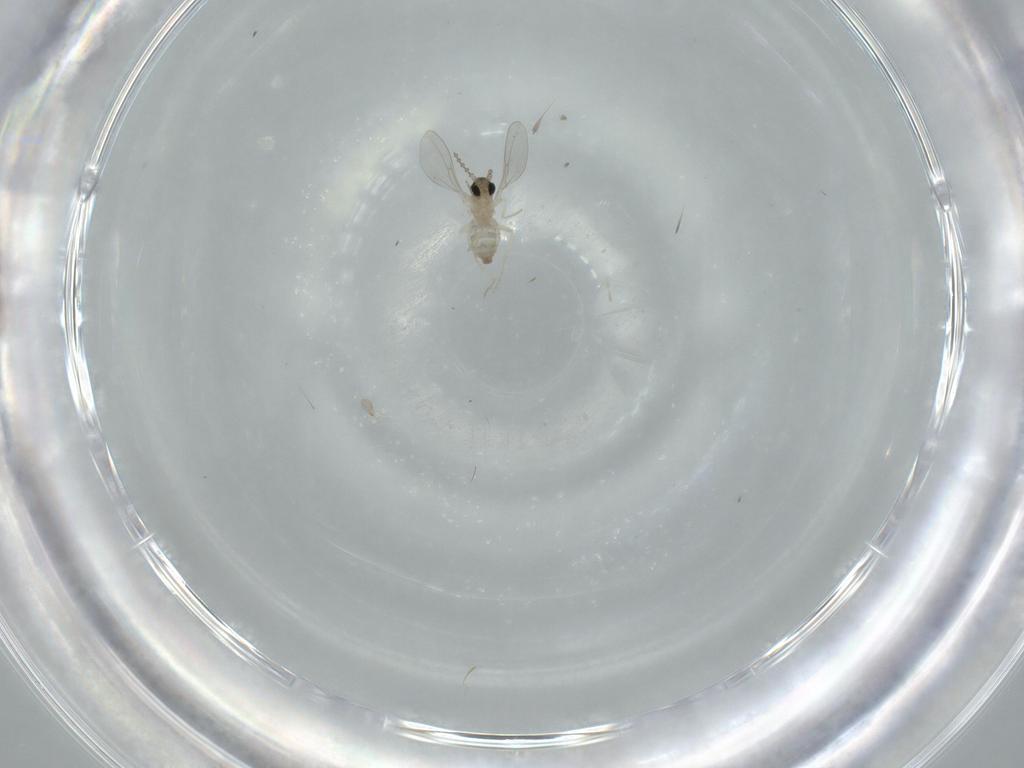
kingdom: Animalia
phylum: Arthropoda
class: Insecta
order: Diptera
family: Cecidomyiidae
